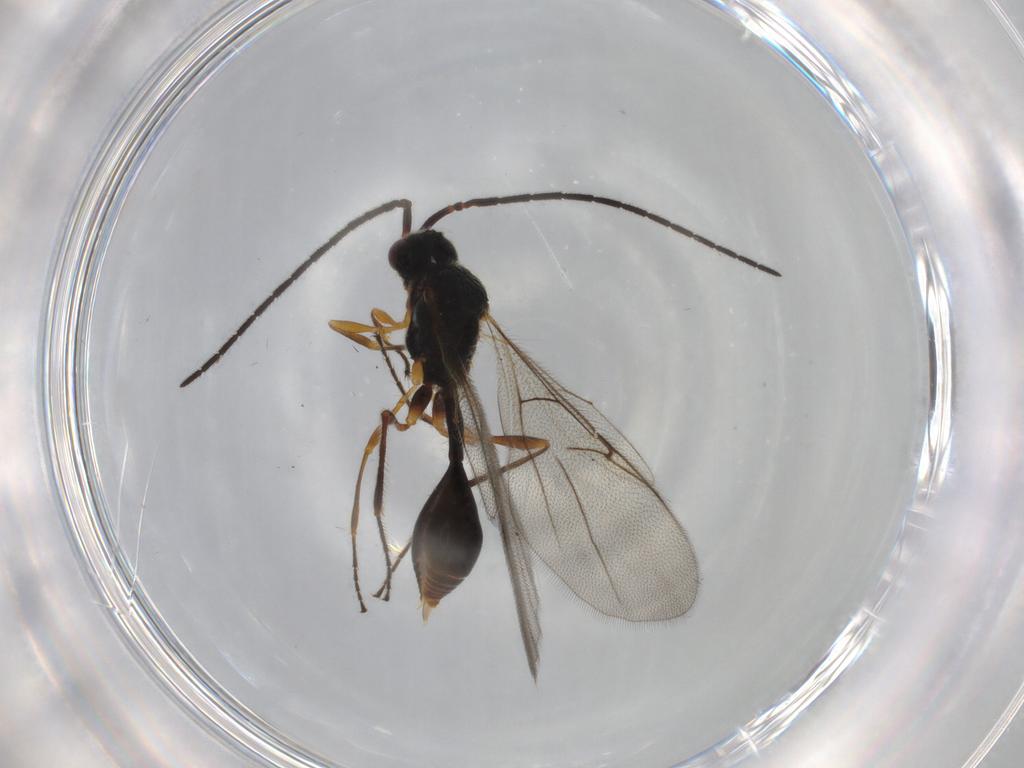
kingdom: Animalia
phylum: Arthropoda
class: Insecta
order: Hymenoptera
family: Diapriidae
